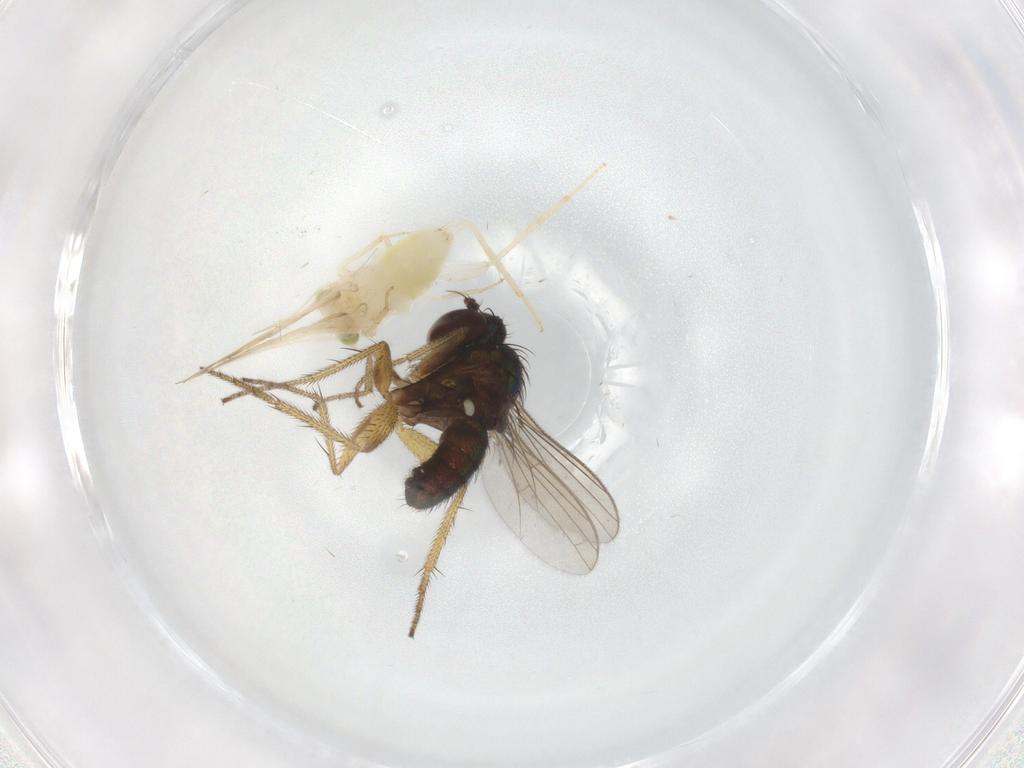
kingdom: Animalia
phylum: Arthropoda
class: Insecta
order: Psocodea
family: Lepidopsocidae
